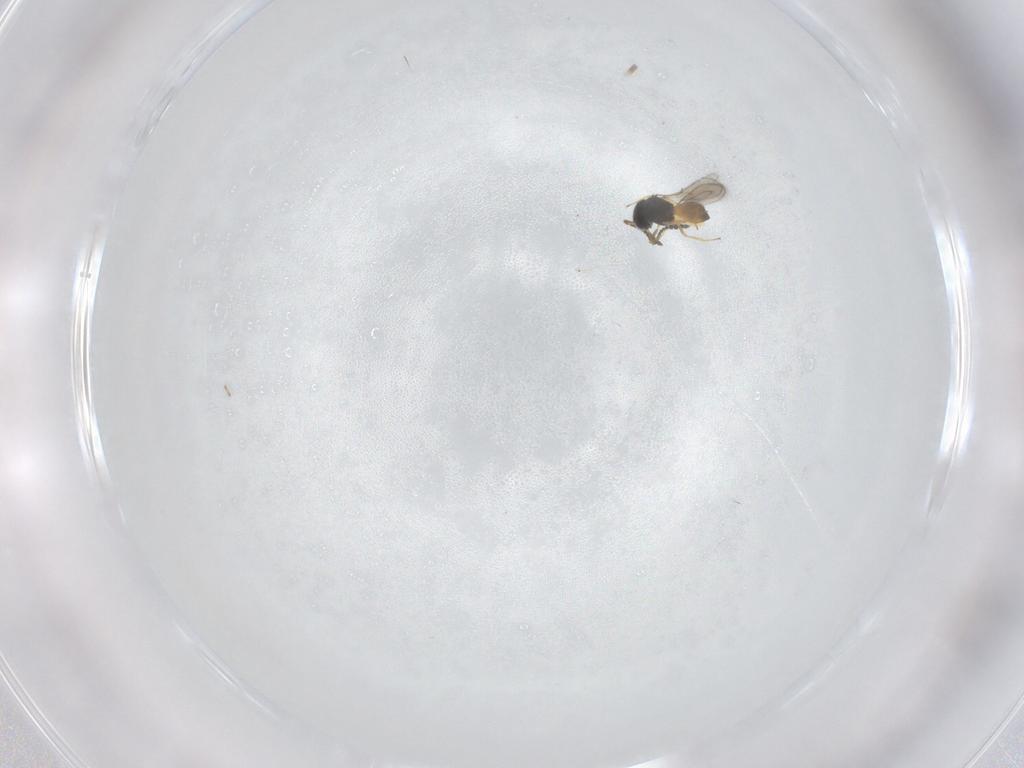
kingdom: Animalia
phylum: Arthropoda
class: Insecta
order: Hymenoptera
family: Scelionidae
